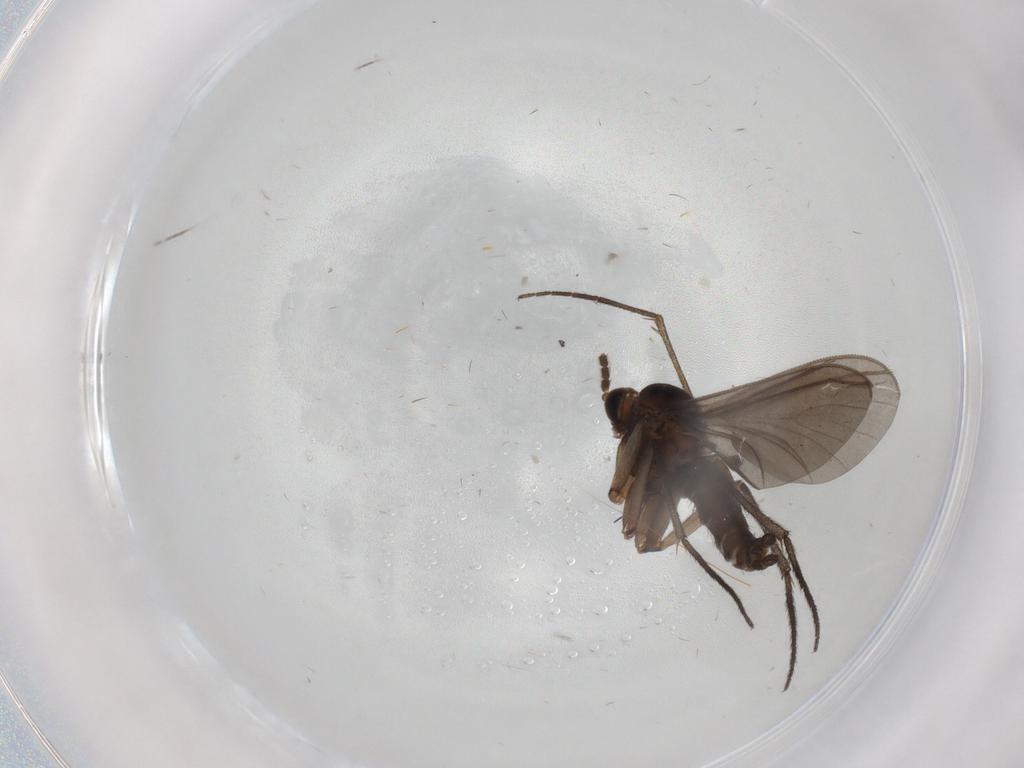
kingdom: Animalia
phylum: Arthropoda
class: Insecta
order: Diptera
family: Sciaridae
